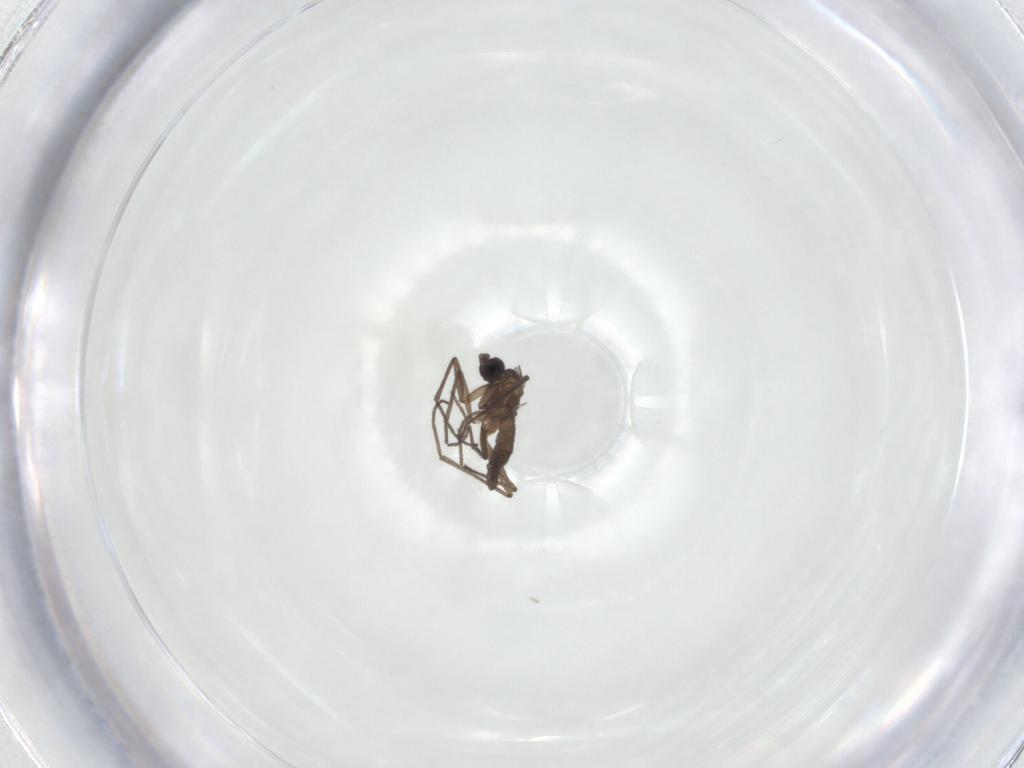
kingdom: Animalia
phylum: Arthropoda
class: Insecta
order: Diptera
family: Sciaridae
